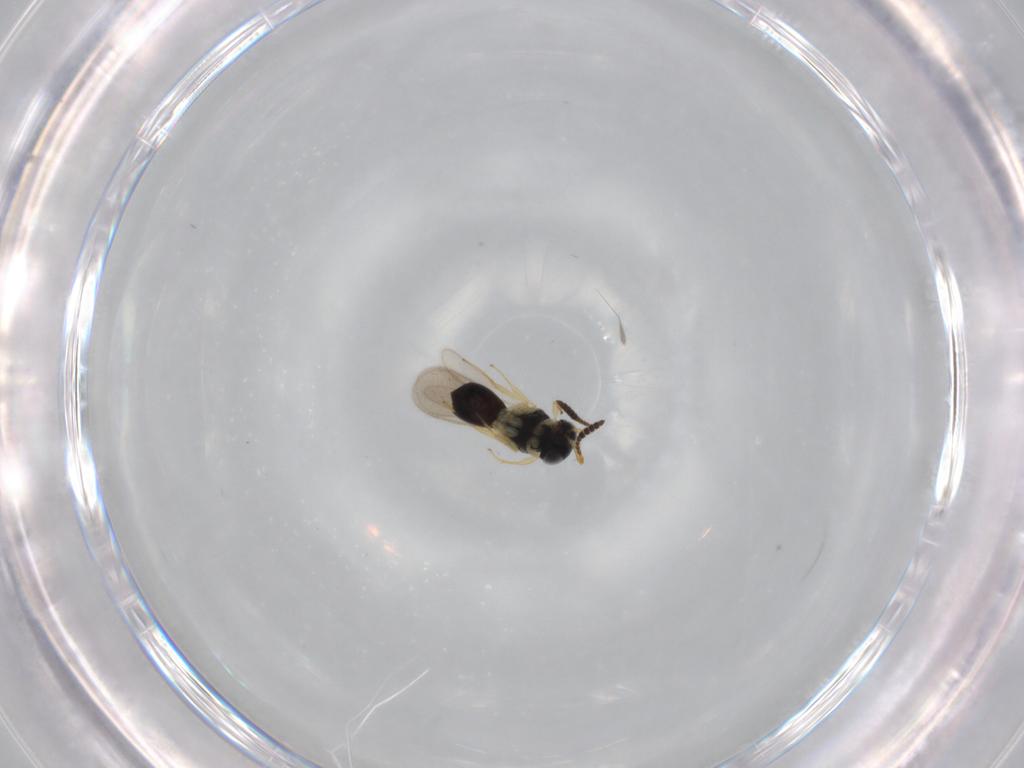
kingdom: Animalia
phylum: Arthropoda
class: Insecta
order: Hymenoptera
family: Scelionidae
